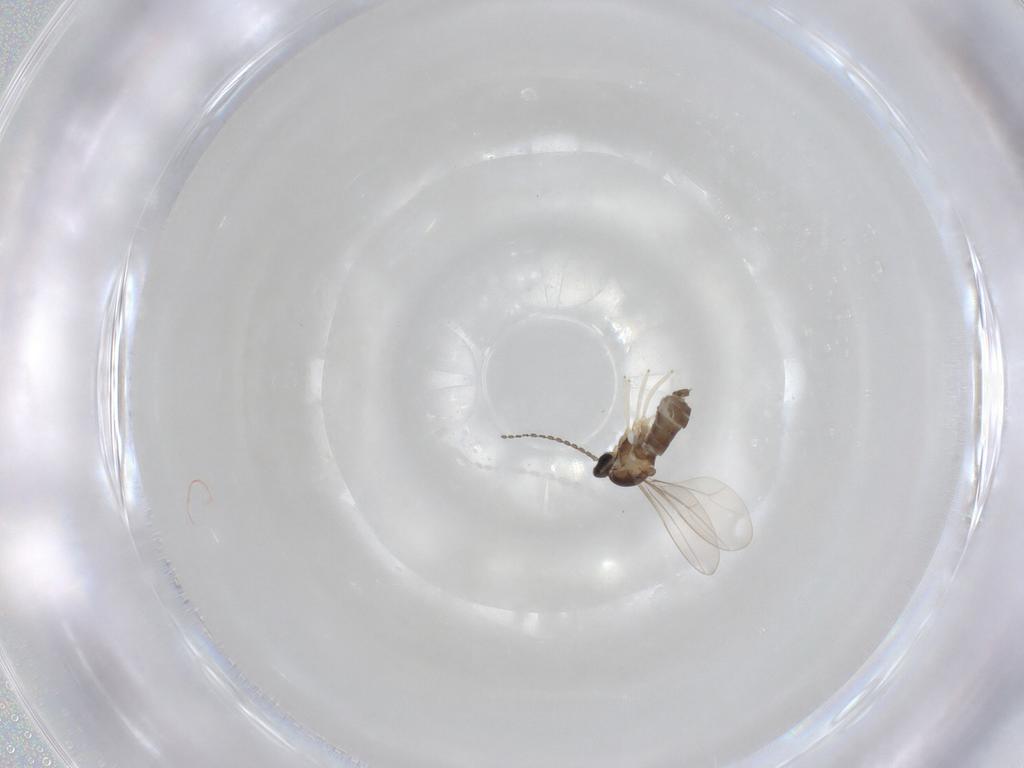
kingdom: Animalia
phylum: Arthropoda
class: Insecta
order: Diptera
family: Cecidomyiidae
